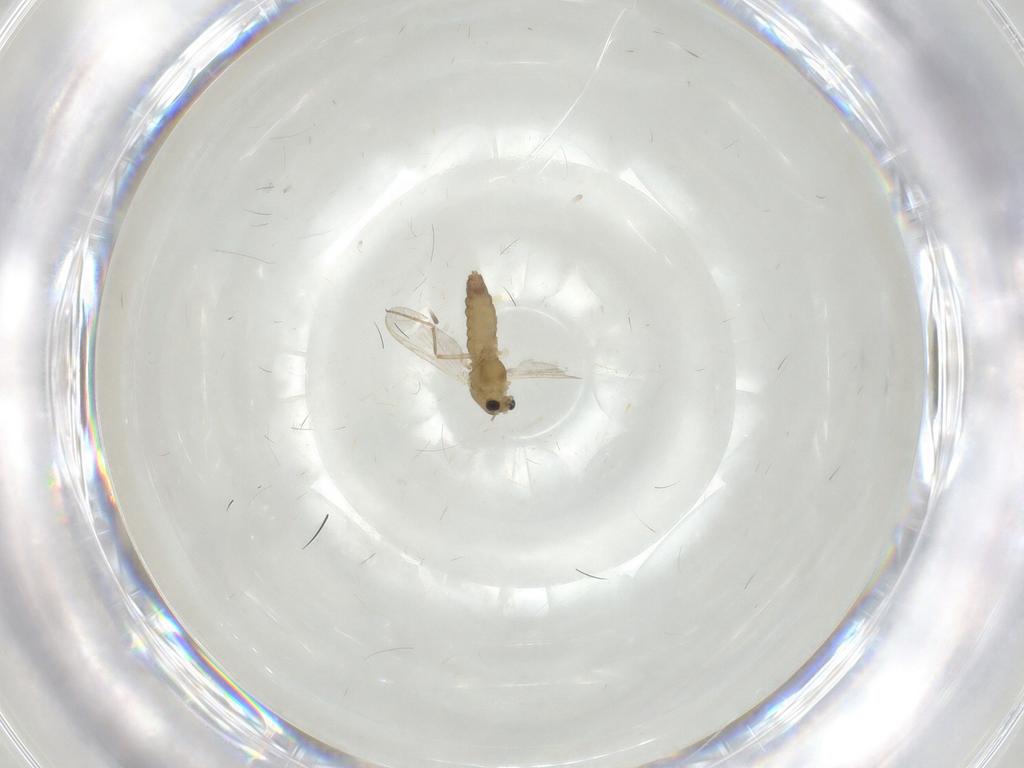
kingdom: Animalia
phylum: Arthropoda
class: Insecta
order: Diptera
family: Chironomidae
